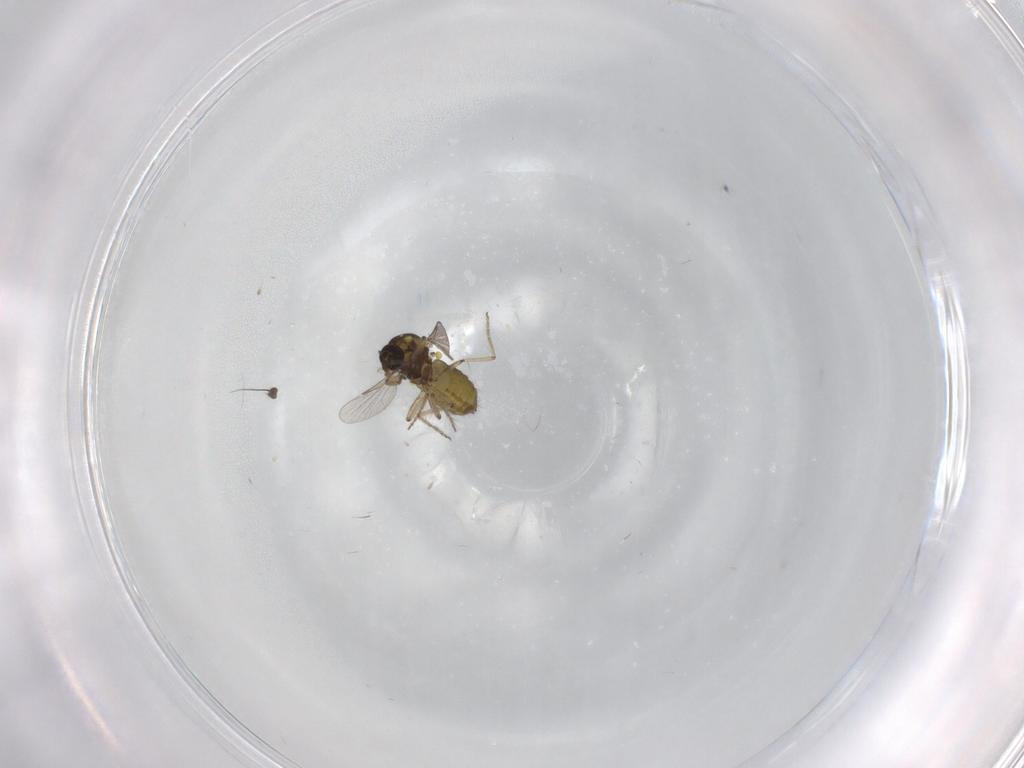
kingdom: Animalia
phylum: Arthropoda
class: Insecta
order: Diptera
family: Ceratopogonidae
